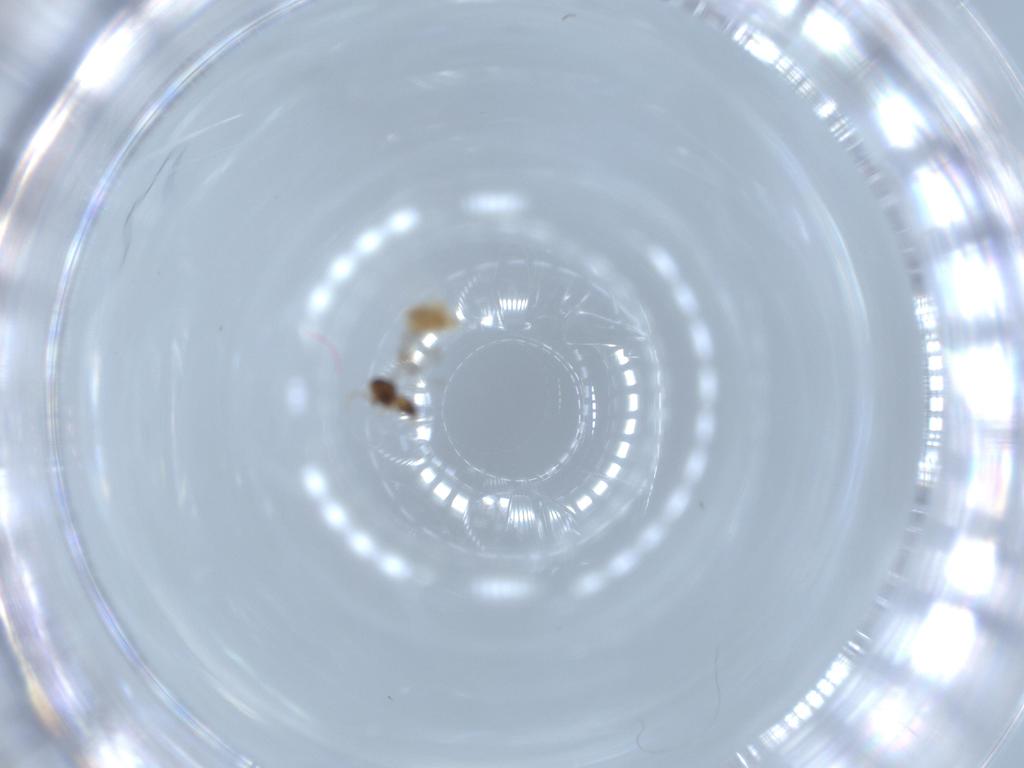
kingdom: Animalia
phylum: Arthropoda
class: Insecta
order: Hymenoptera
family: Ceraphronidae
